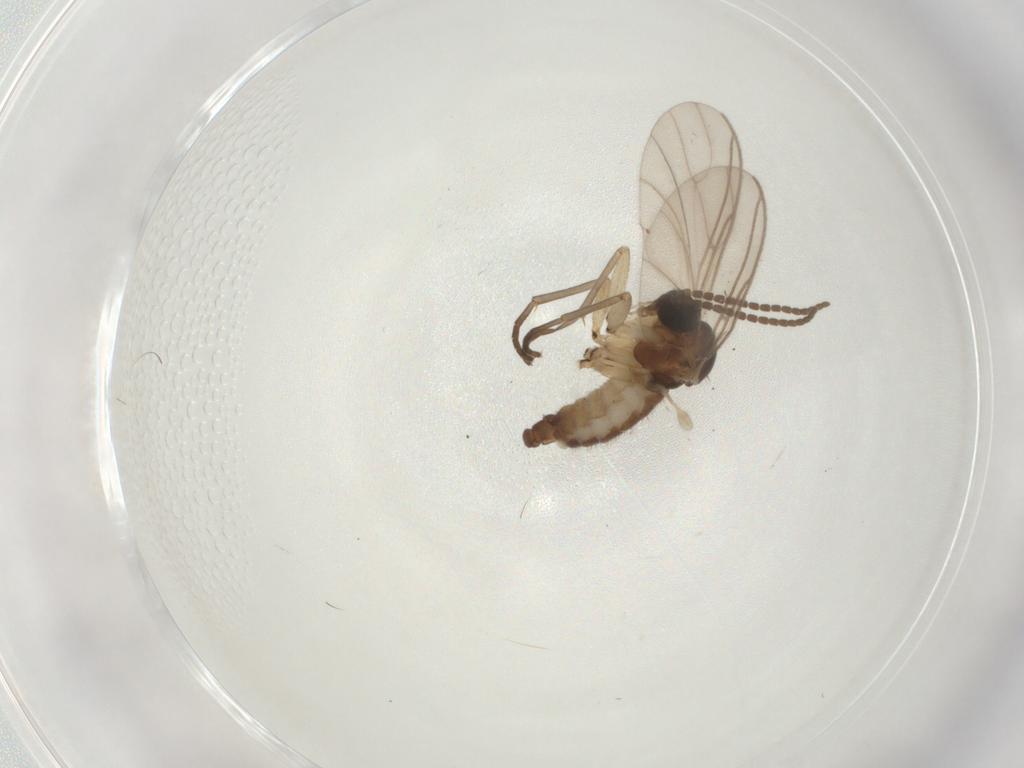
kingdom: Animalia
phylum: Arthropoda
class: Insecta
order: Diptera
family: Sciaridae
